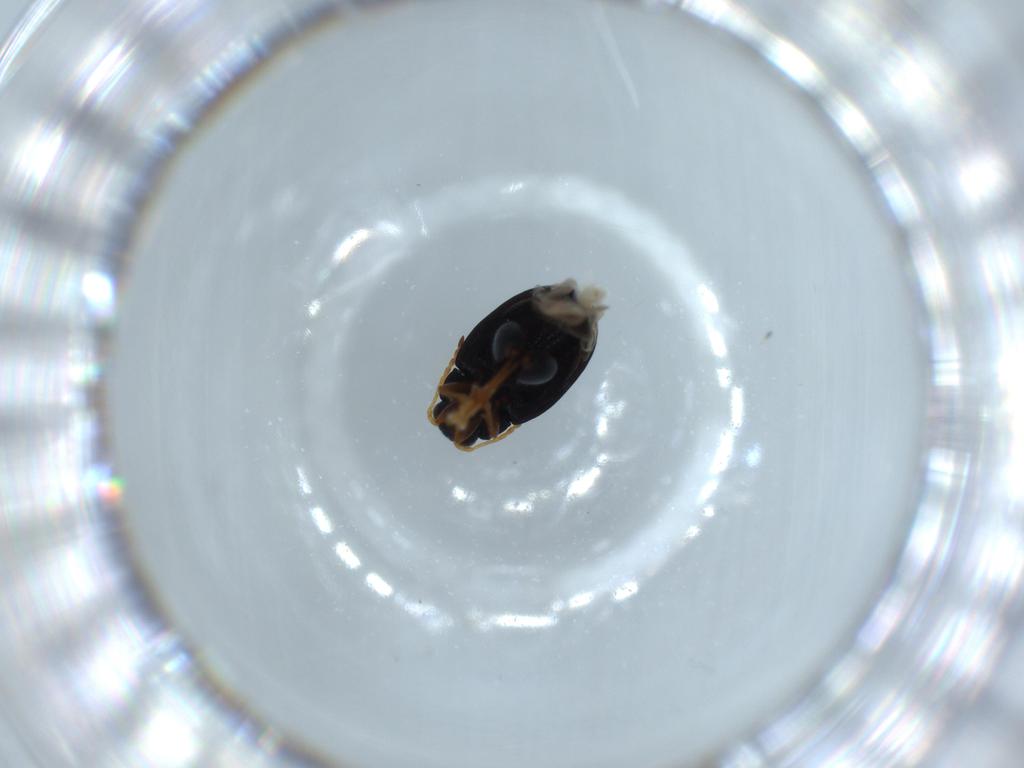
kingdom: Animalia
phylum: Arthropoda
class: Insecta
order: Coleoptera
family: Chrysomelidae
